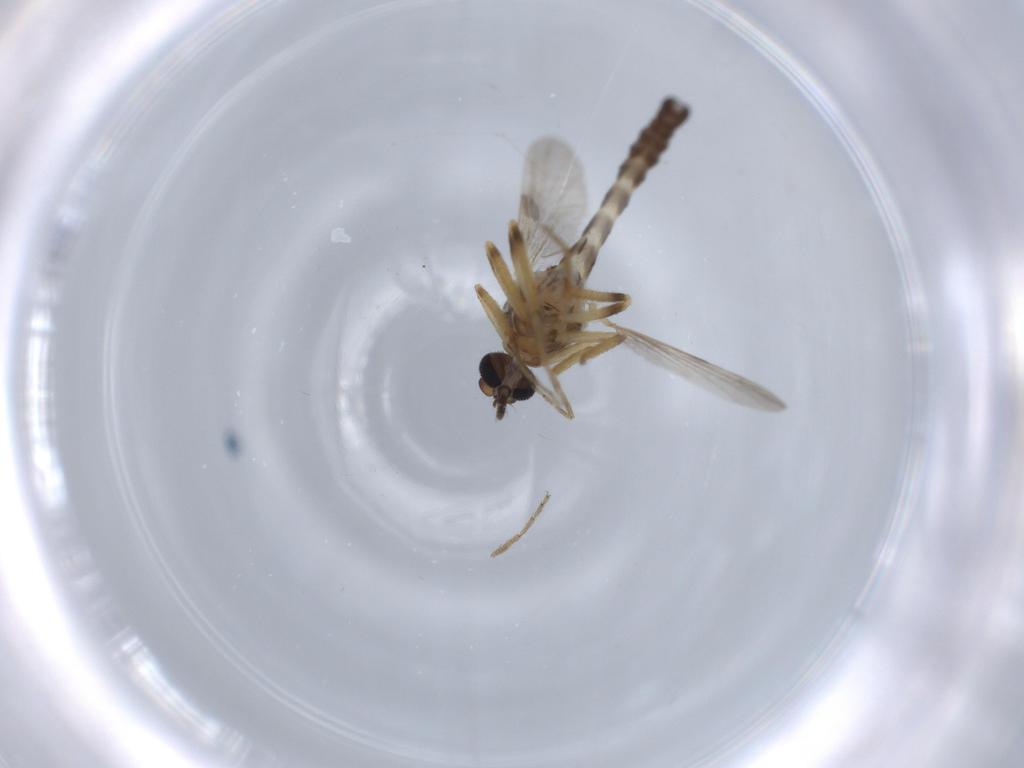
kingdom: Animalia
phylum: Arthropoda
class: Insecta
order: Diptera
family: Ceratopogonidae
